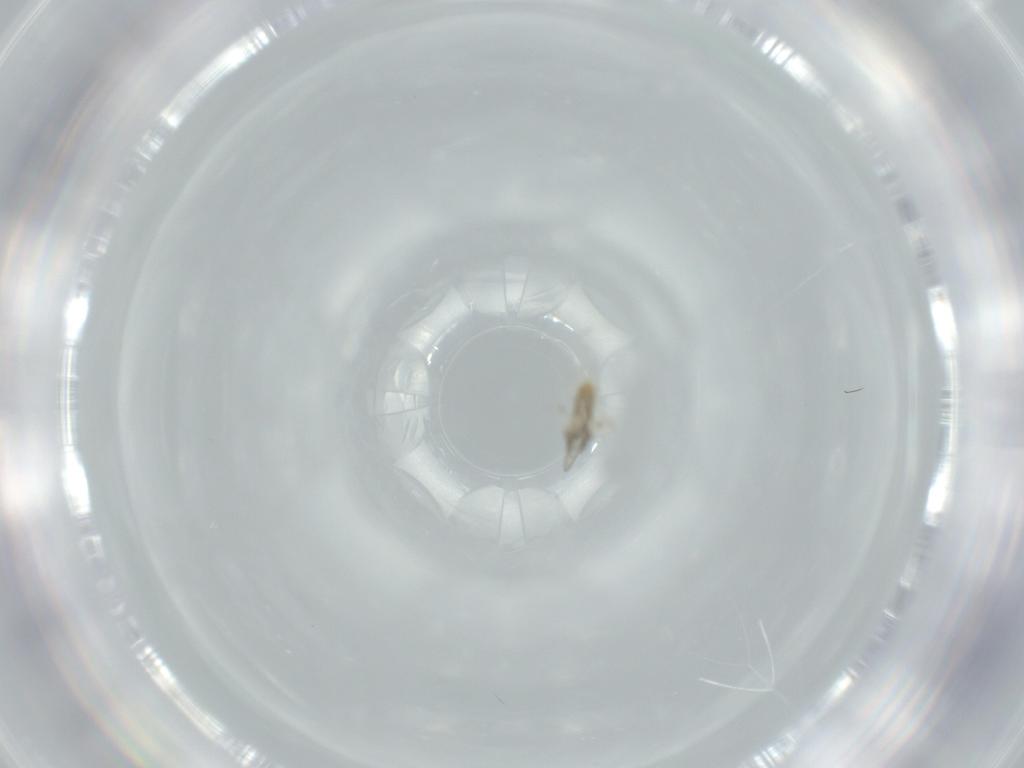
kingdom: Animalia
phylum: Arthropoda
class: Insecta
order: Diptera
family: Cecidomyiidae
